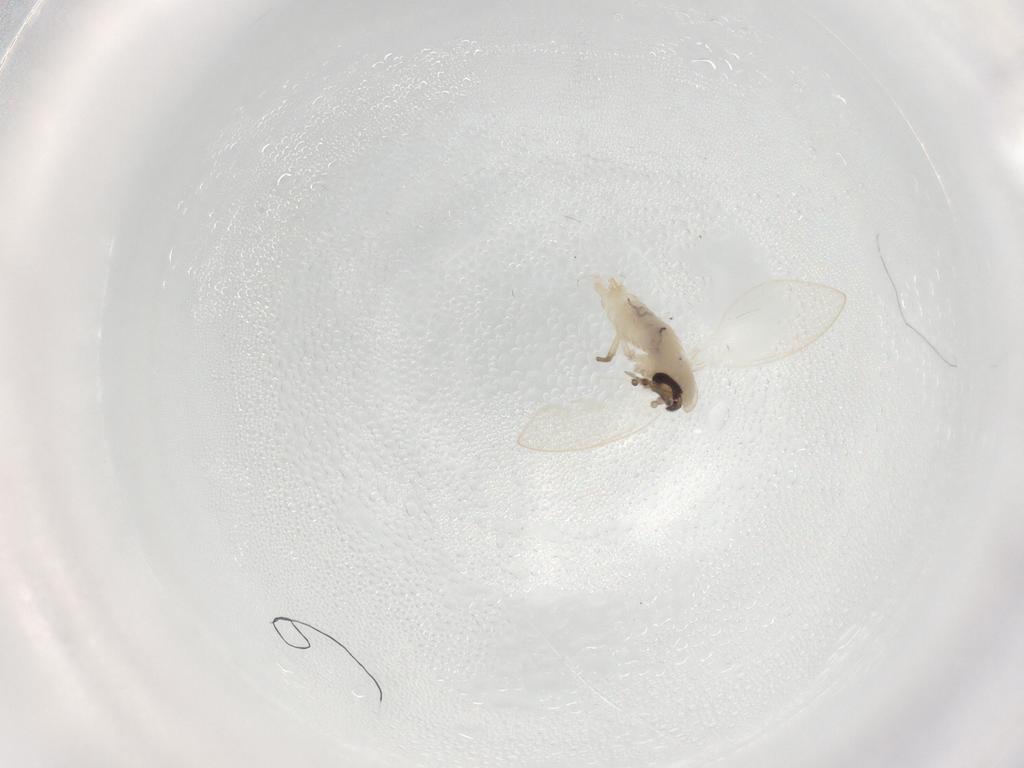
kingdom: Animalia
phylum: Arthropoda
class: Insecta
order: Diptera
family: Psychodidae
